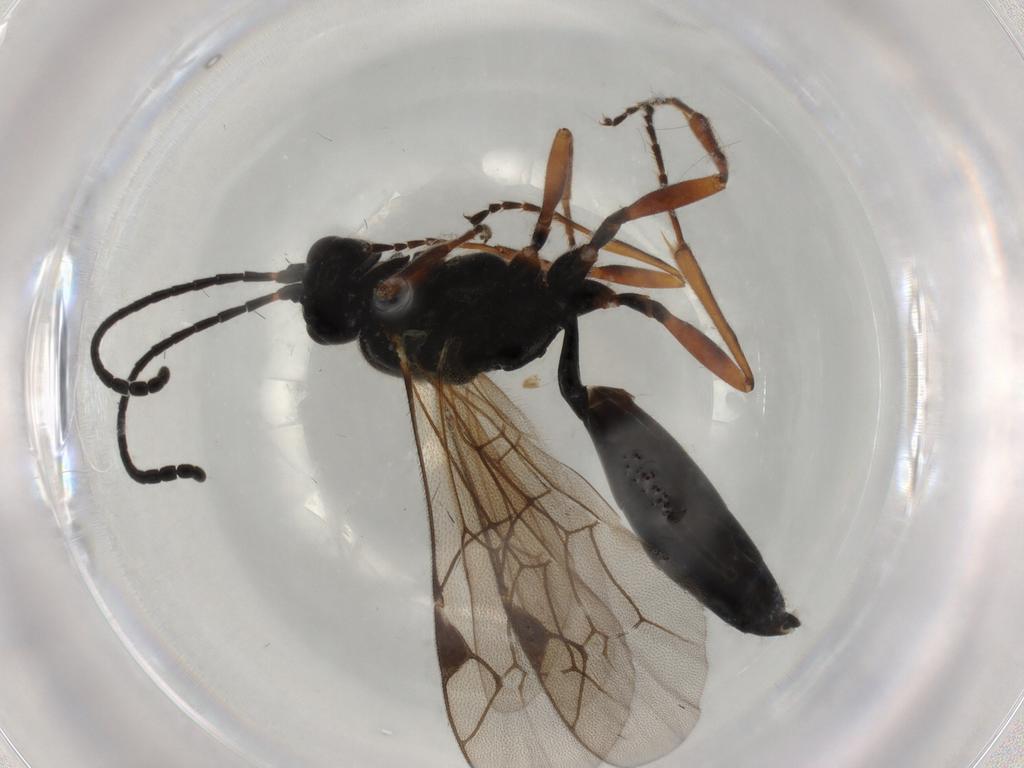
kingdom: Animalia
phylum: Arthropoda
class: Insecta
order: Hymenoptera
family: Ichneumonidae
